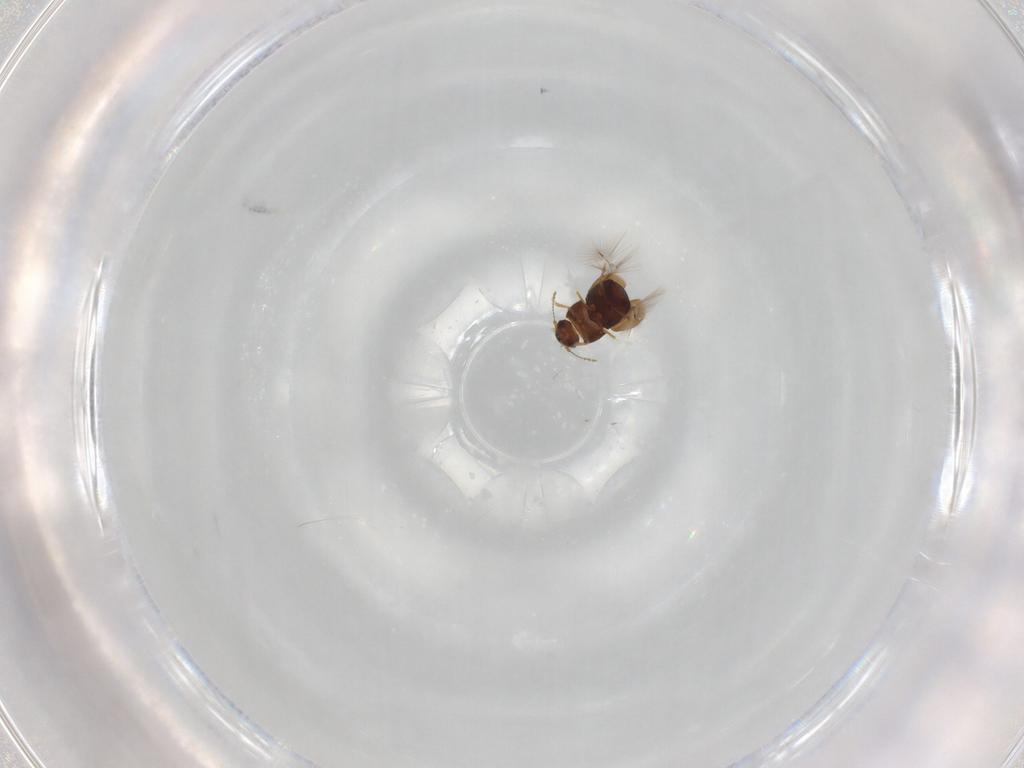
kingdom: Animalia
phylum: Arthropoda
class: Insecta
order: Coleoptera
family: Ptiliidae
